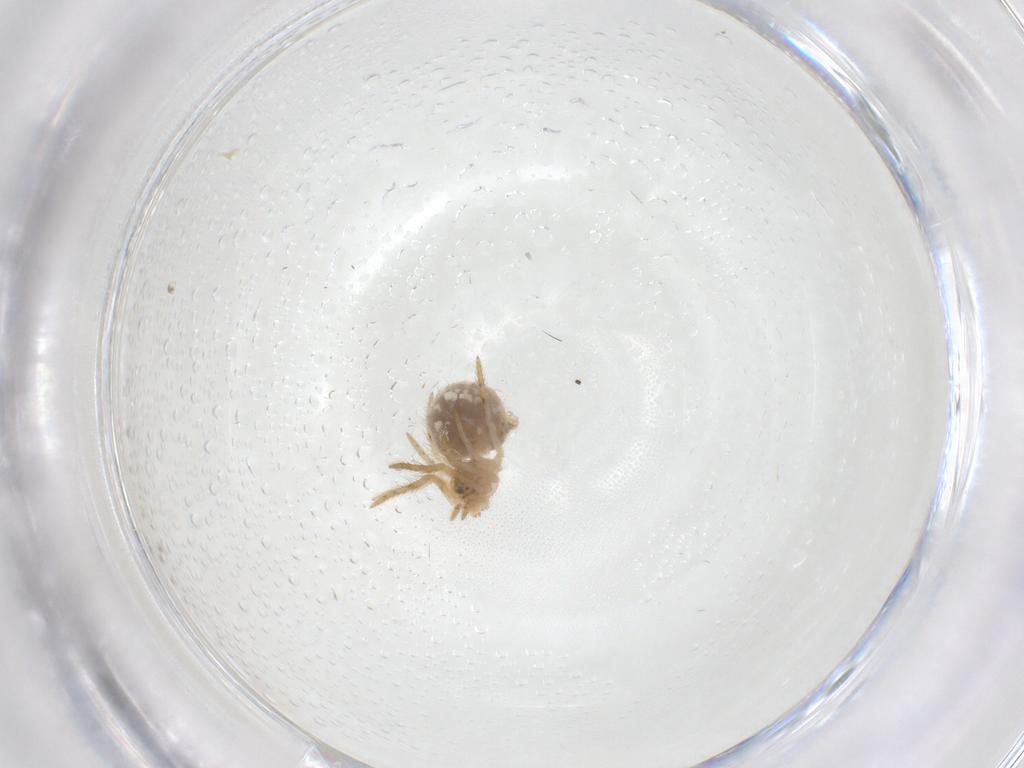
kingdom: Animalia
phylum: Arthropoda
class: Arachnida
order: Araneae
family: Theridiidae
